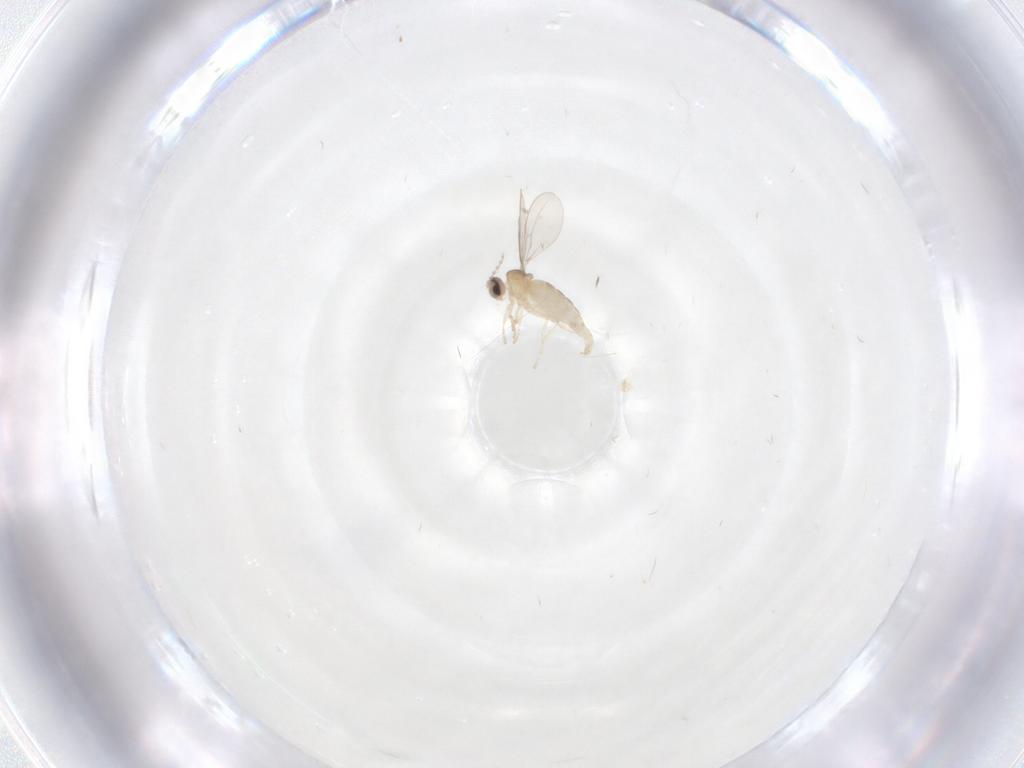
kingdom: Animalia
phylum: Arthropoda
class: Insecta
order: Diptera
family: Cecidomyiidae
